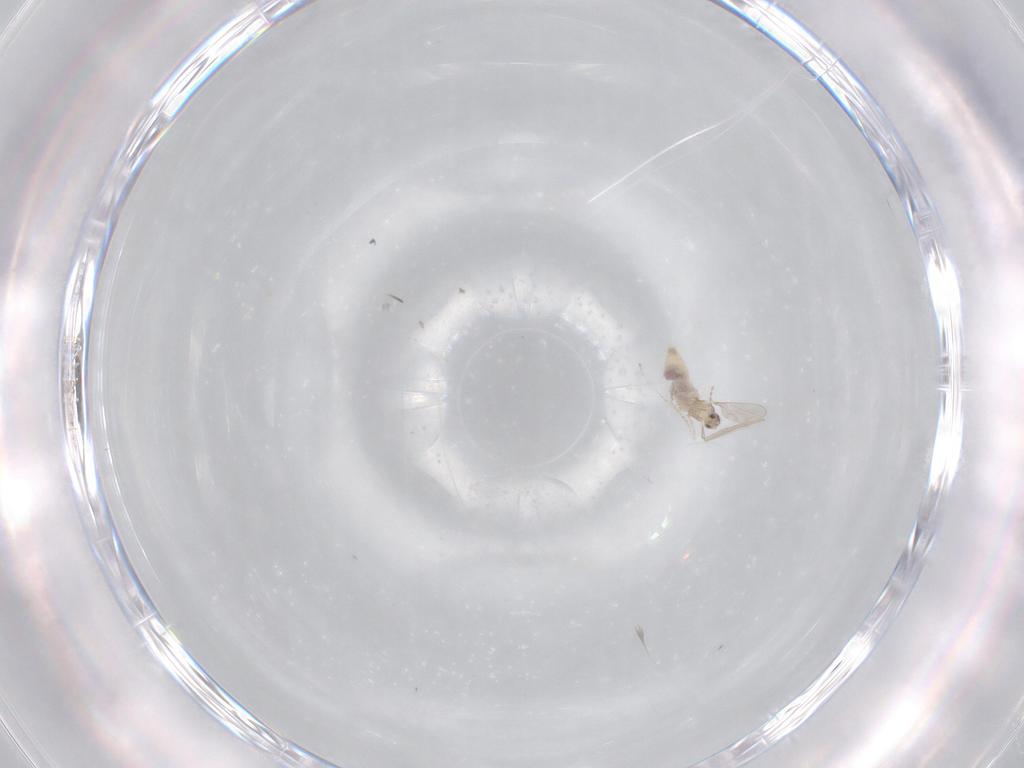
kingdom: Animalia
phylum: Arthropoda
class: Insecta
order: Diptera
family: Cecidomyiidae
